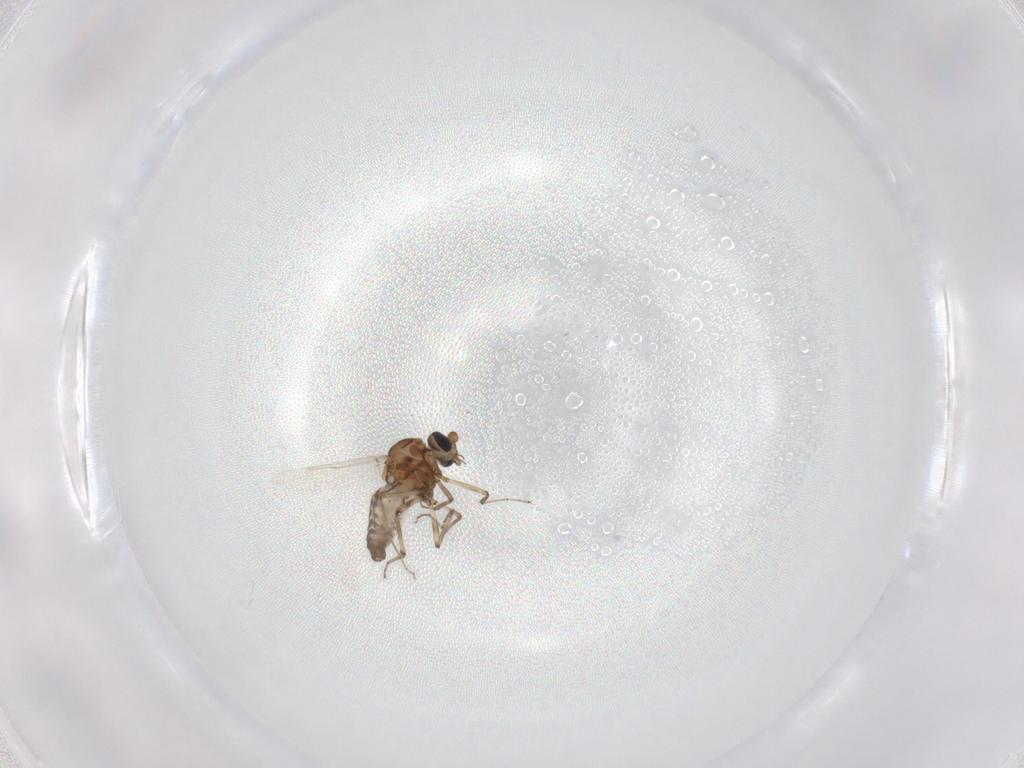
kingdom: Animalia
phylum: Arthropoda
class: Insecta
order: Diptera
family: Ceratopogonidae
